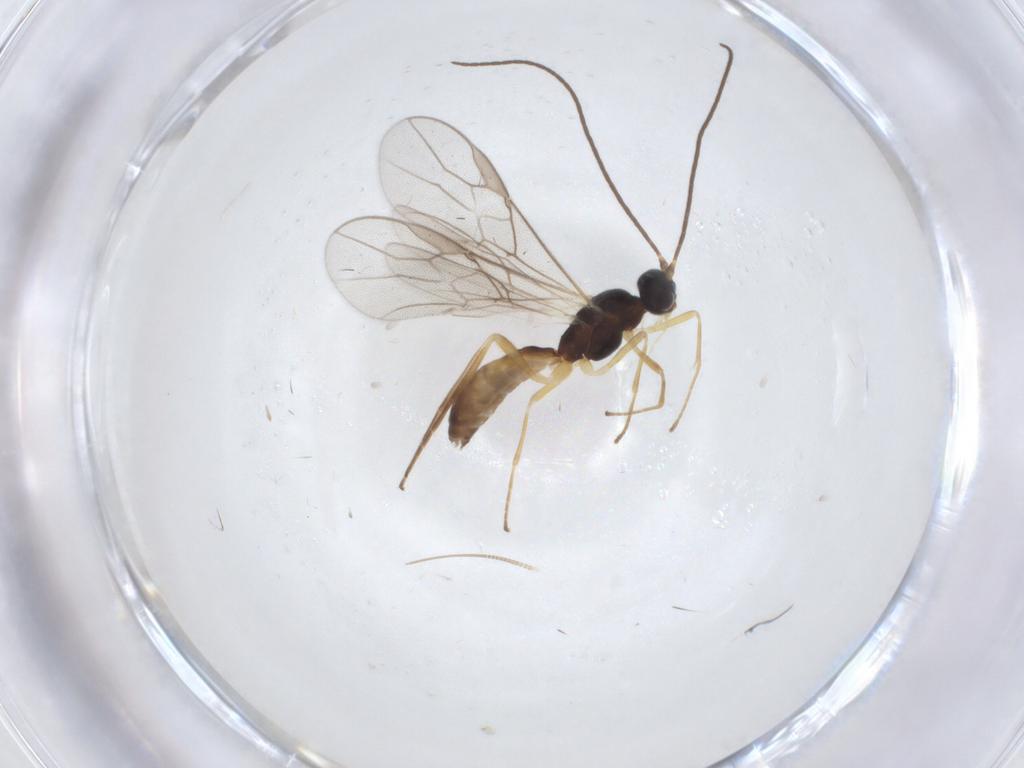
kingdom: Animalia
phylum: Arthropoda
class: Insecta
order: Hymenoptera
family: Braconidae
